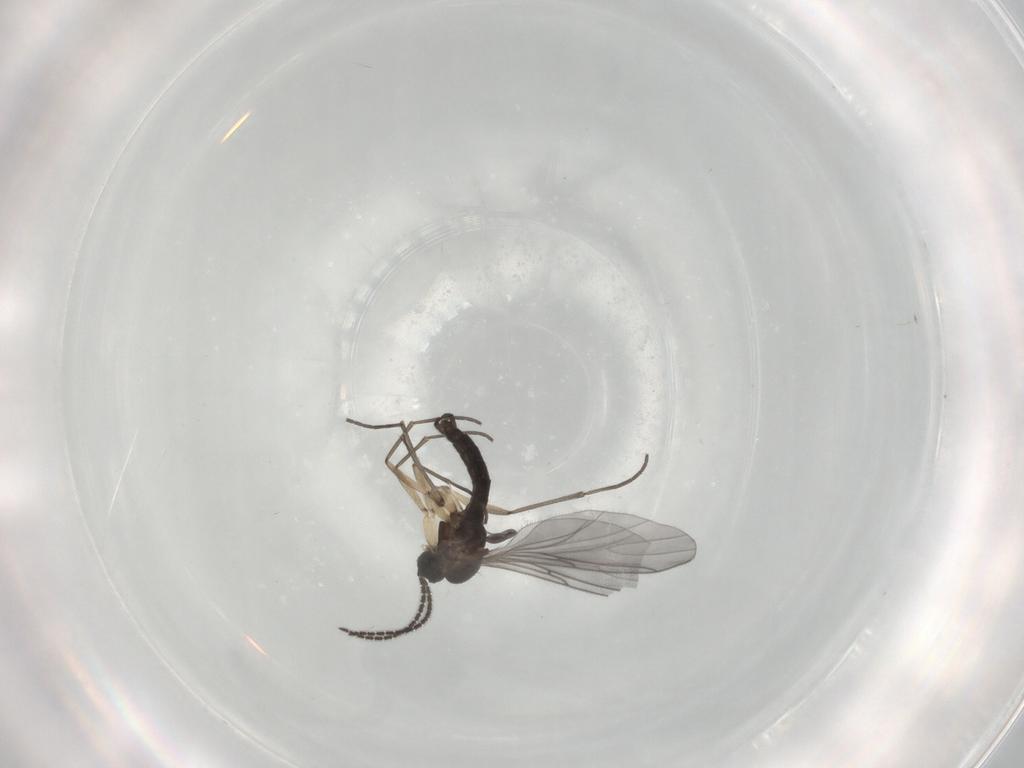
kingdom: Animalia
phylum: Arthropoda
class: Insecta
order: Diptera
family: Sciaridae
